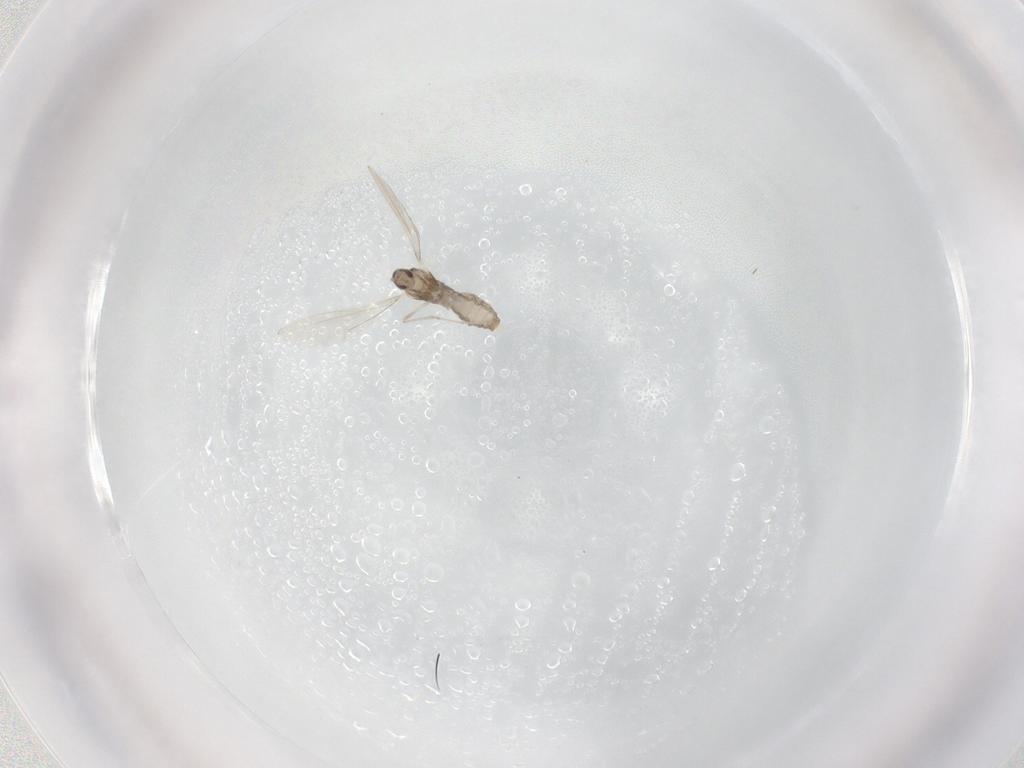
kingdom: Animalia
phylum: Arthropoda
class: Insecta
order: Diptera
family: Cecidomyiidae
